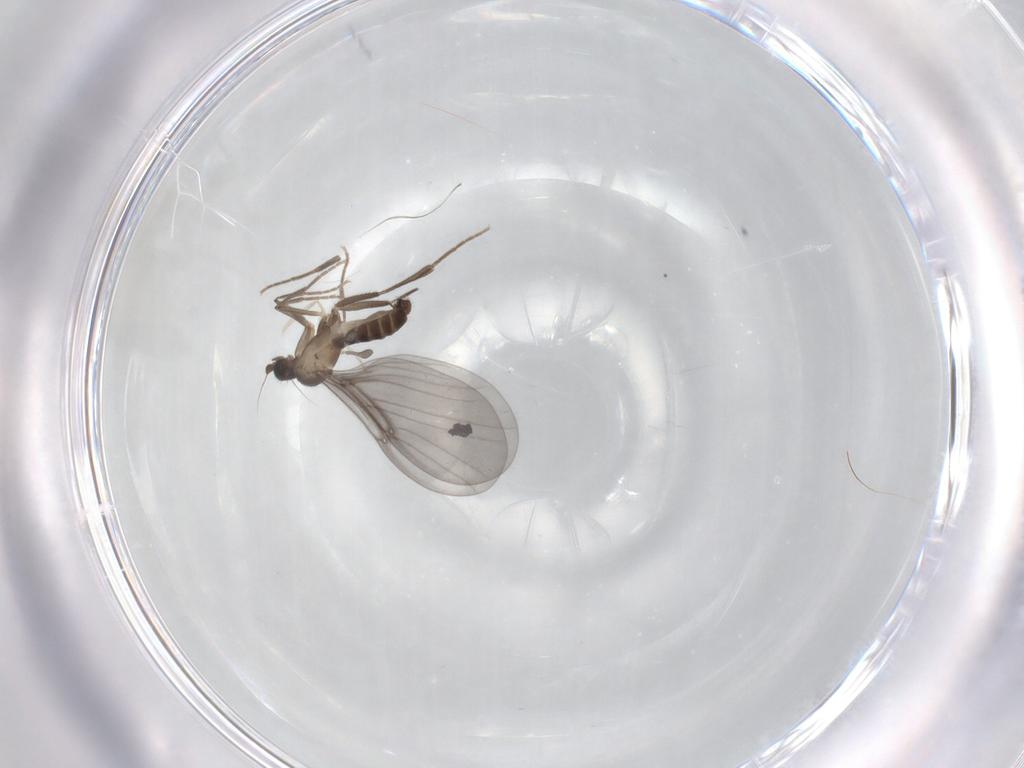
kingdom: Animalia
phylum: Arthropoda
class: Insecta
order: Diptera
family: Phoridae
